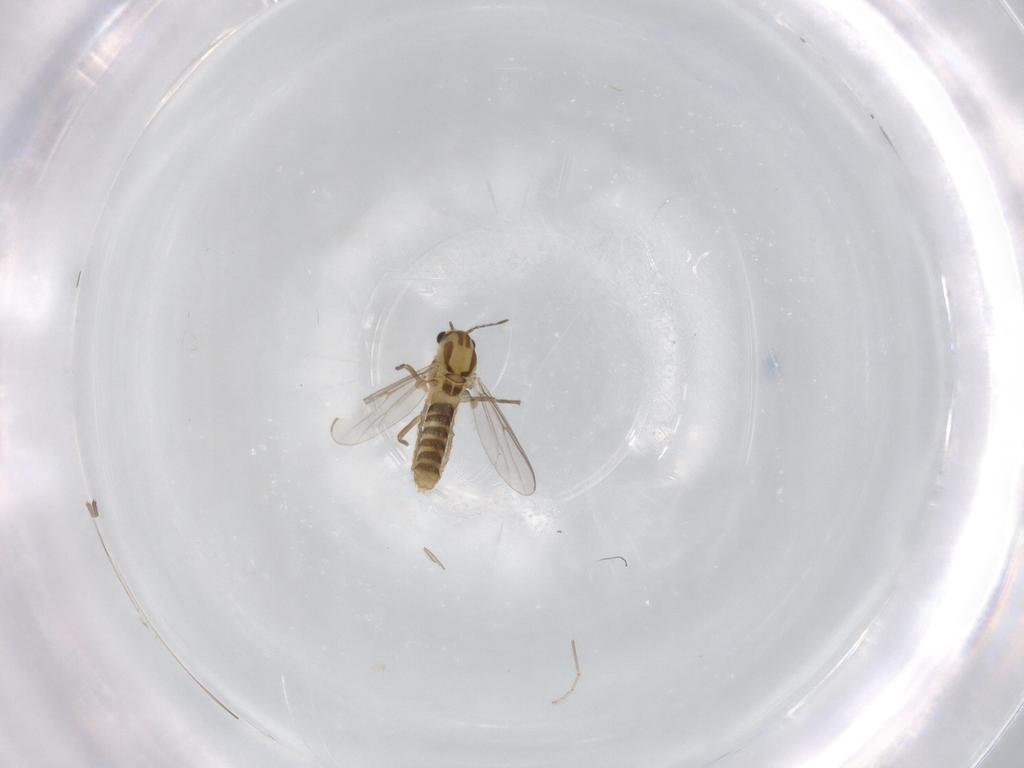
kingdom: Animalia
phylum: Arthropoda
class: Insecta
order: Diptera
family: Chironomidae
